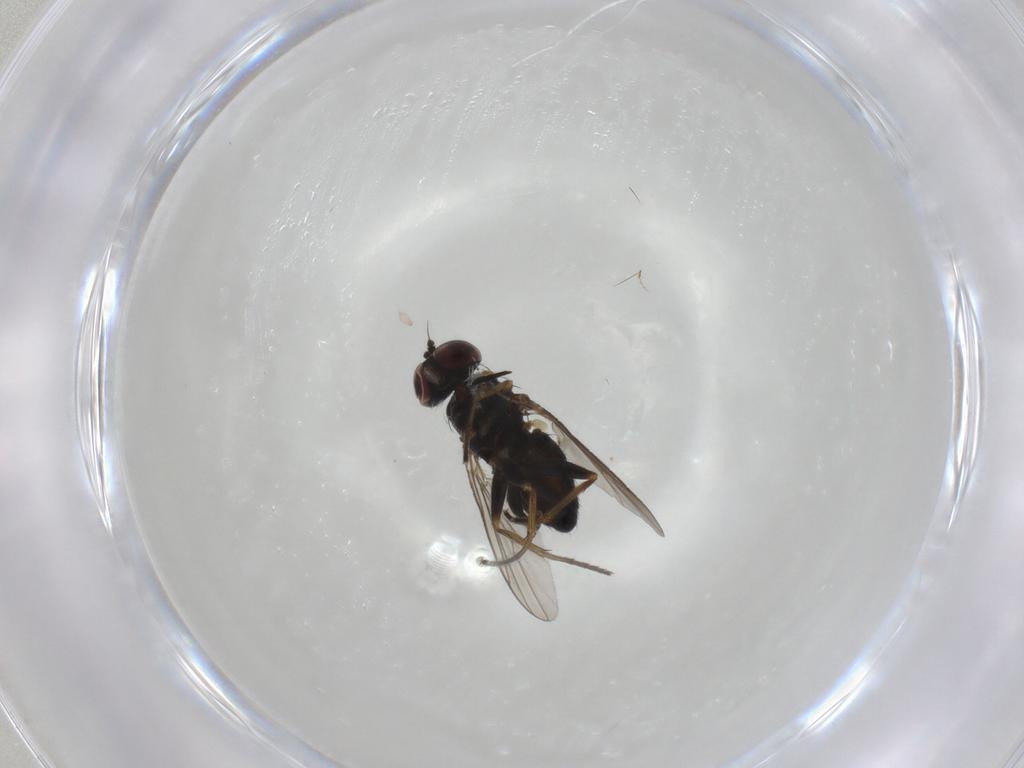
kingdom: Animalia
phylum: Arthropoda
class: Insecta
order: Diptera
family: Dolichopodidae
